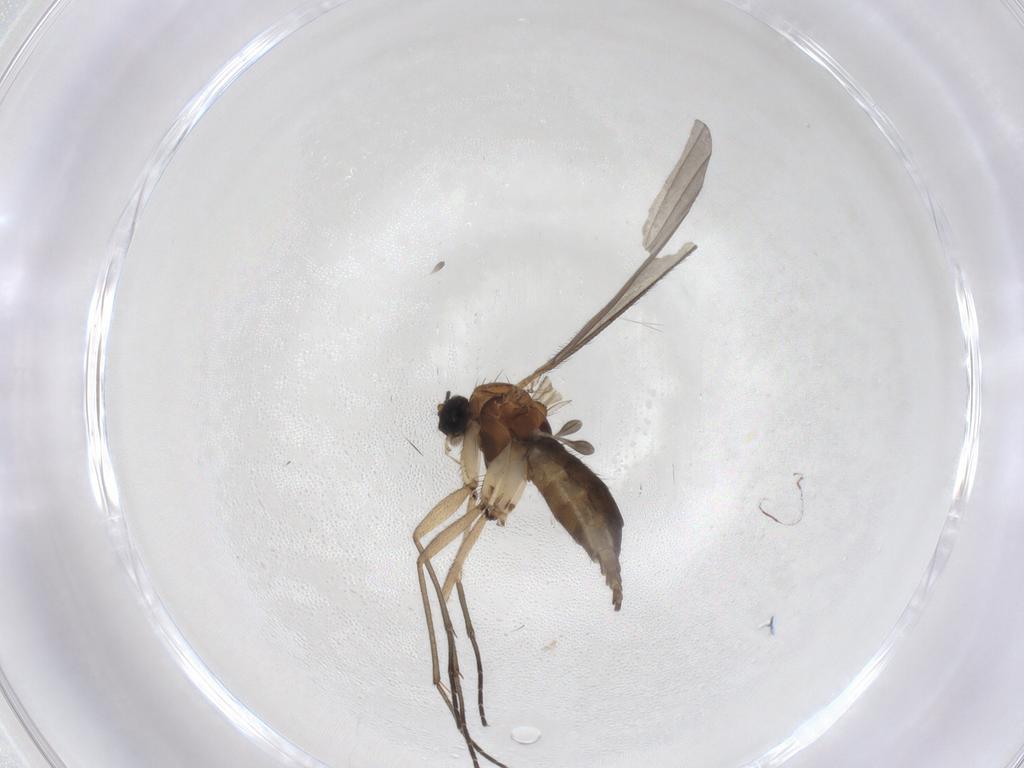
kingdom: Animalia
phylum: Arthropoda
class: Insecta
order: Diptera
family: Sciaridae
